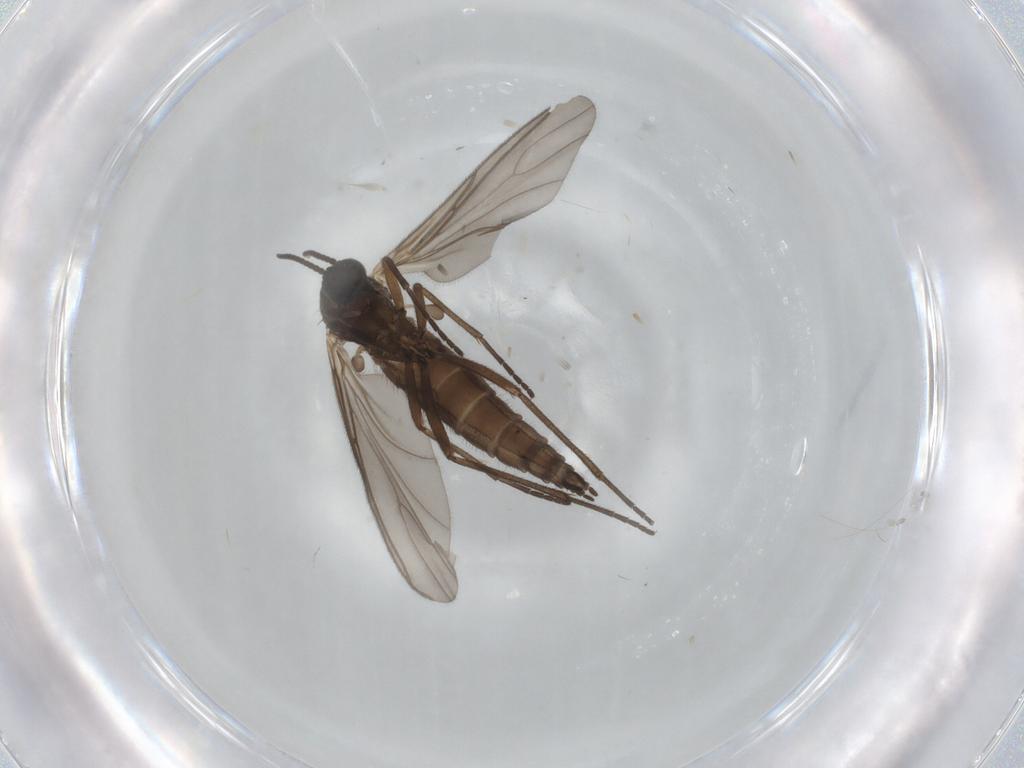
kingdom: Animalia
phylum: Arthropoda
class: Insecta
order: Diptera
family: Sciaridae
